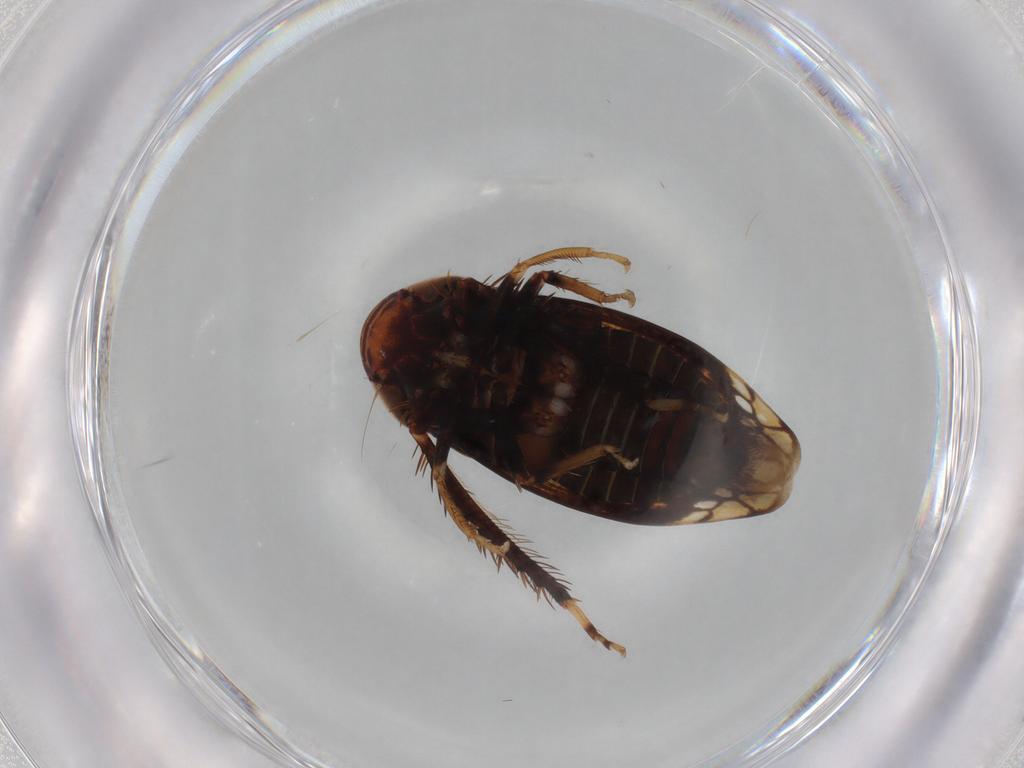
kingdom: Animalia
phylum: Arthropoda
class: Insecta
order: Hemiptera
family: Cicadellidae
